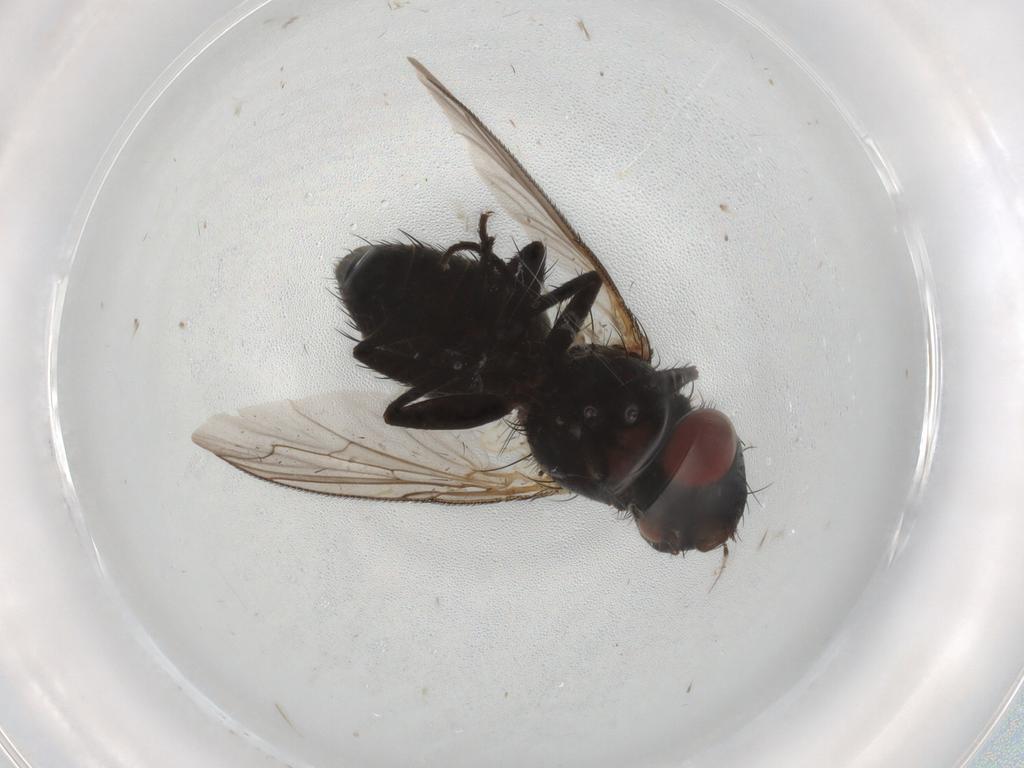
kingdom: Animalia
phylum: Arthropoda
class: Insecta
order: Diptera
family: Sarcophagidae
